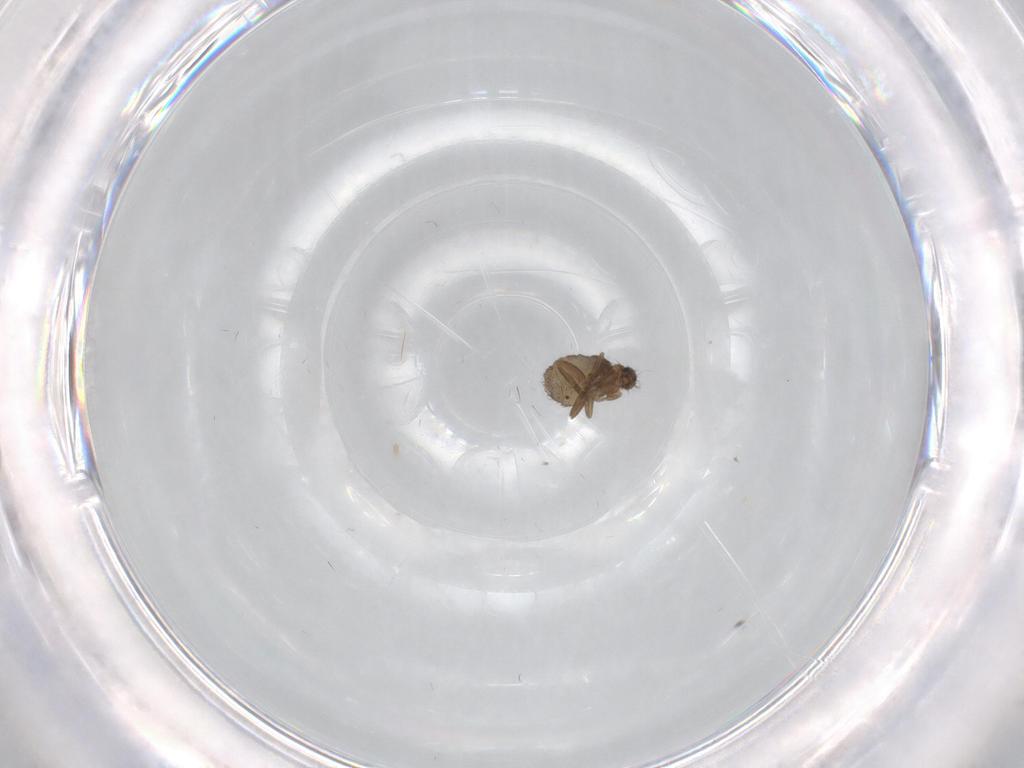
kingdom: Animalia
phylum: Arthropoda
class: Insecta
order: Diptera
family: Cecidomyiidae
